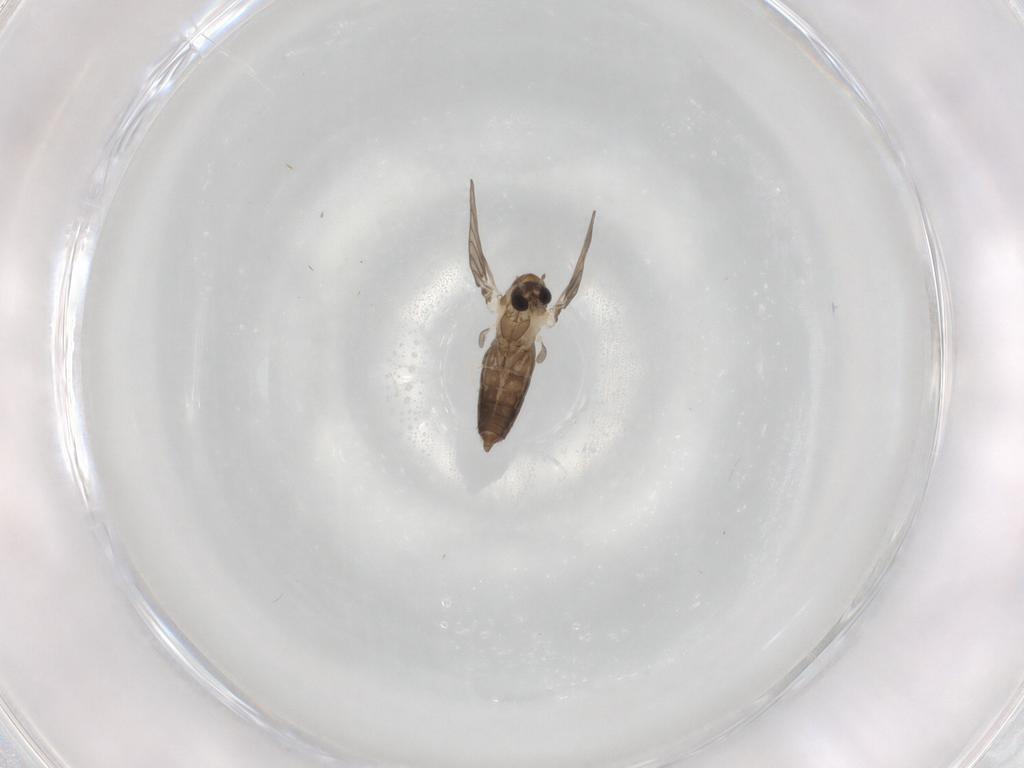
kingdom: Animalia
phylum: Arthropoda
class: Insecta
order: Diptera
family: Psychodidae
